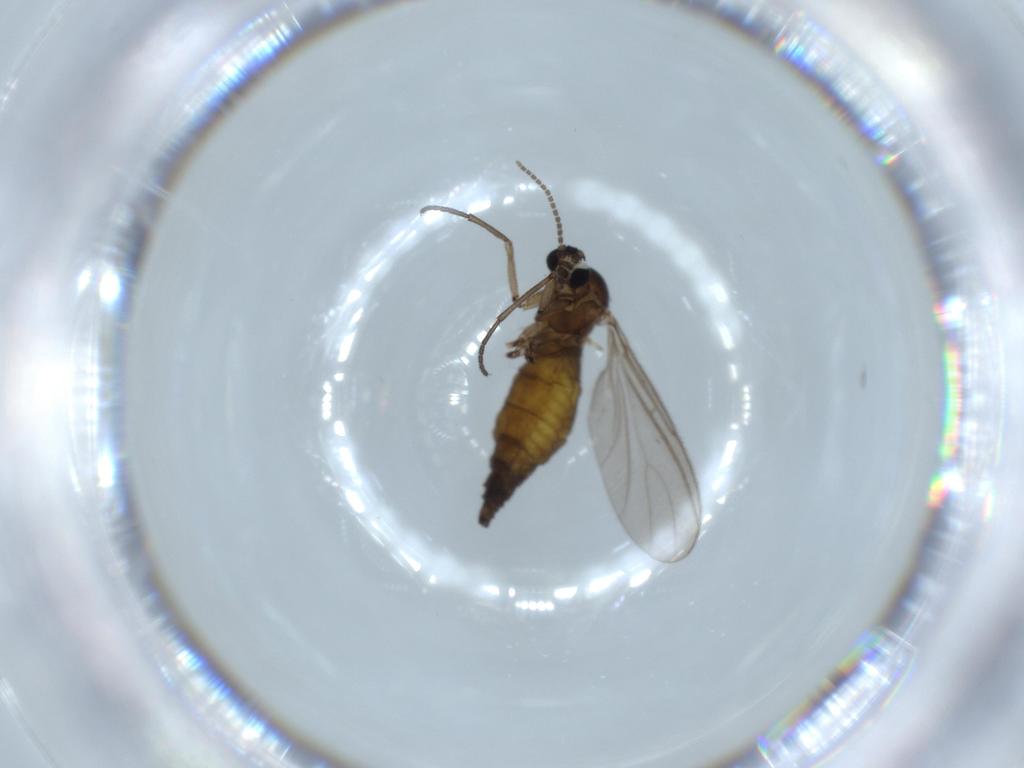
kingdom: Animalia
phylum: Arthropoda
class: Insecta
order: Diptera
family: Sciaridae
